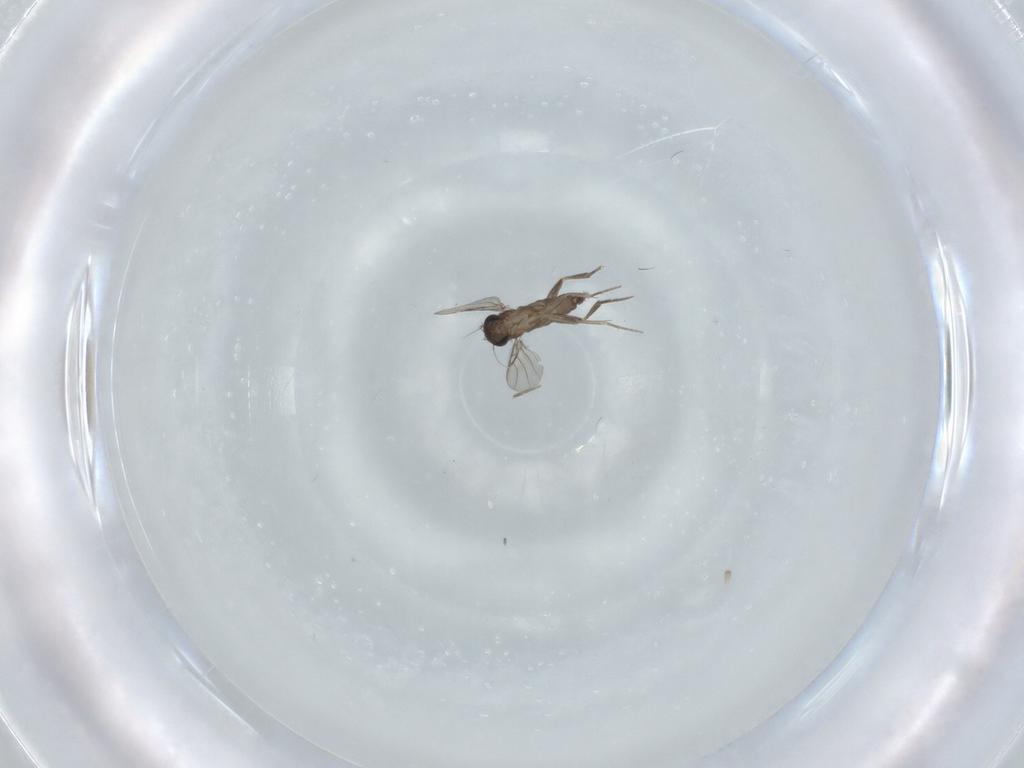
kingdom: Animalia
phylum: Arthropoda
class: Insecta
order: Diptera
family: Phoridae
